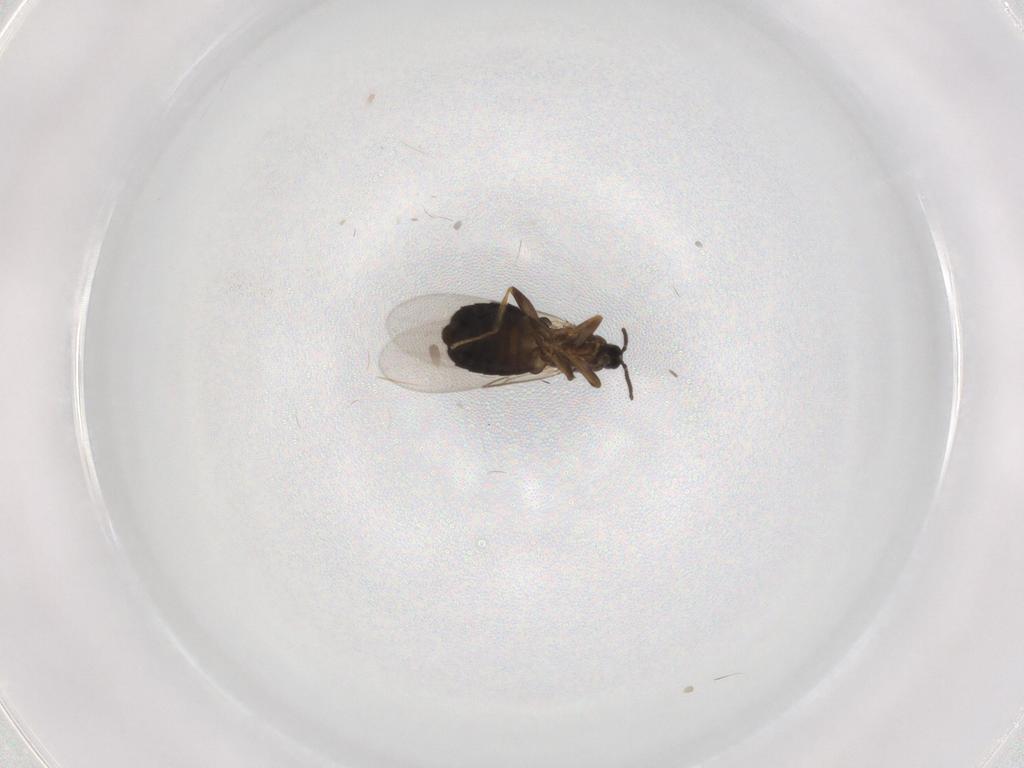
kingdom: Animalia
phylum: Arthropoda
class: Insecta
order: Diptera
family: Scatopsidae
